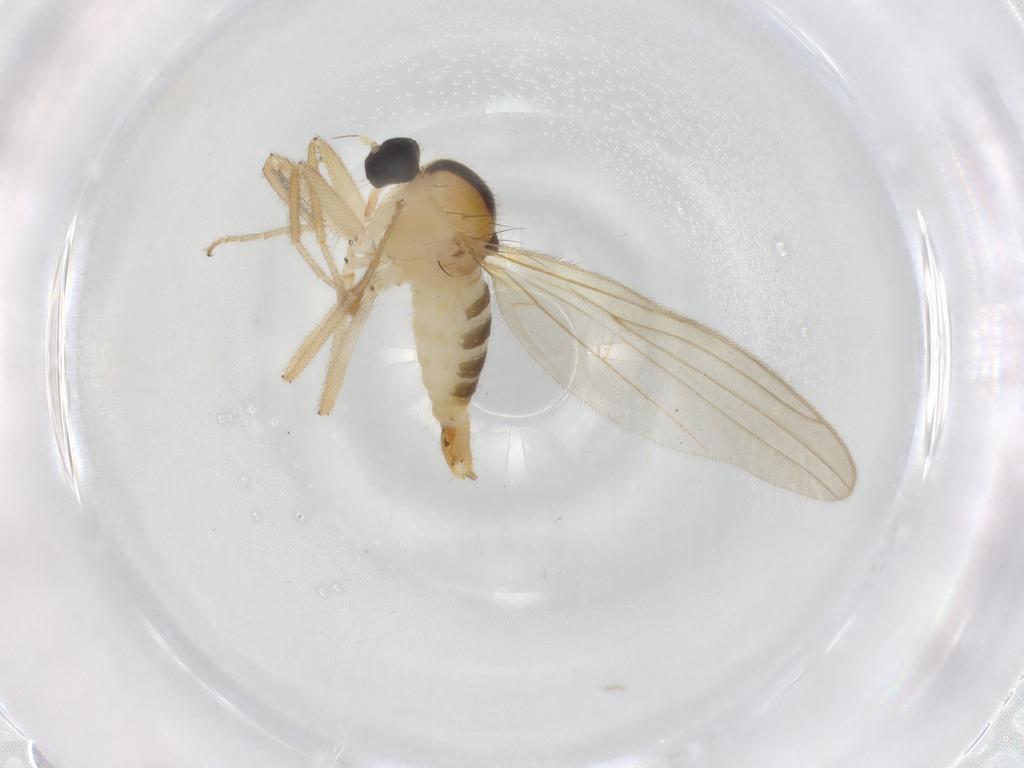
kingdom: Animalia
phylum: Arthropoda
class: Insecta
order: Diptera
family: Hybotidae
